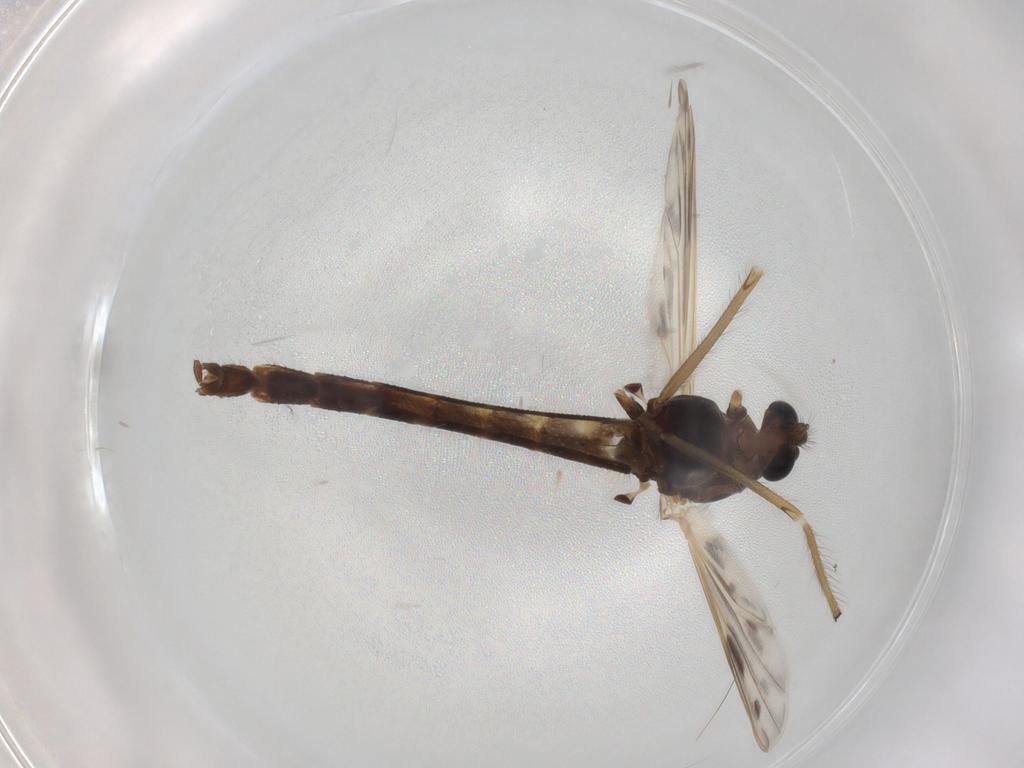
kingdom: Animalia
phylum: Arthropoda
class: Insecta
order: Diptera
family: Chironomidae
